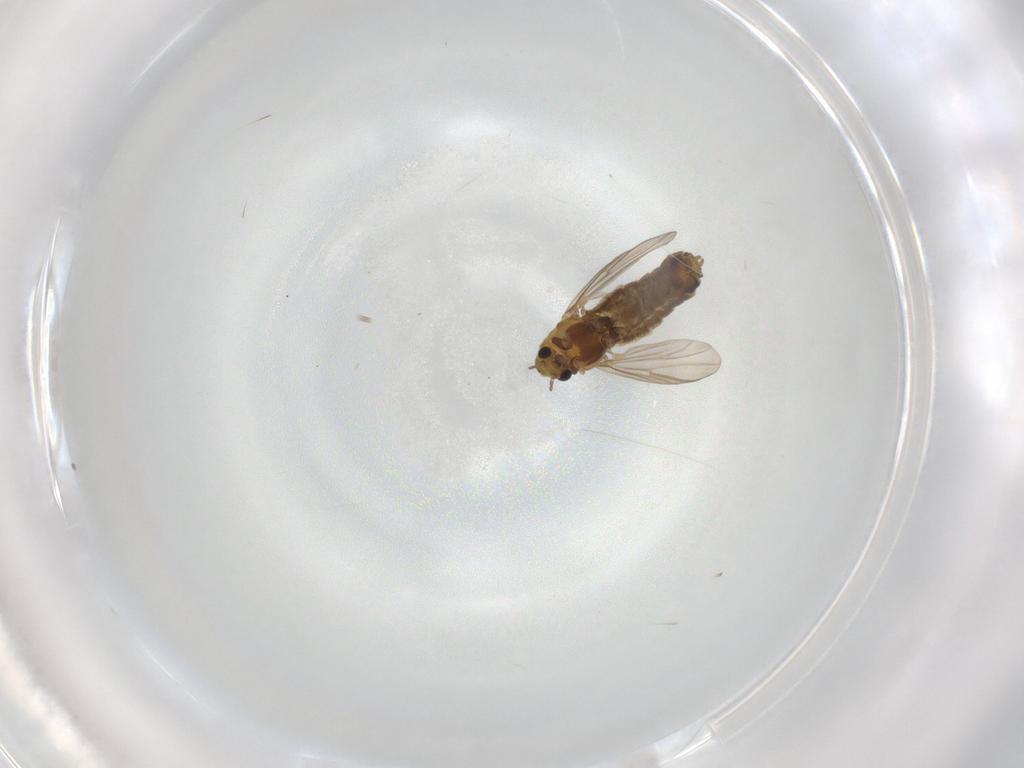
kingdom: Animalia
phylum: Arthropoda
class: Insecta
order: Diptera
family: Chironomidae
